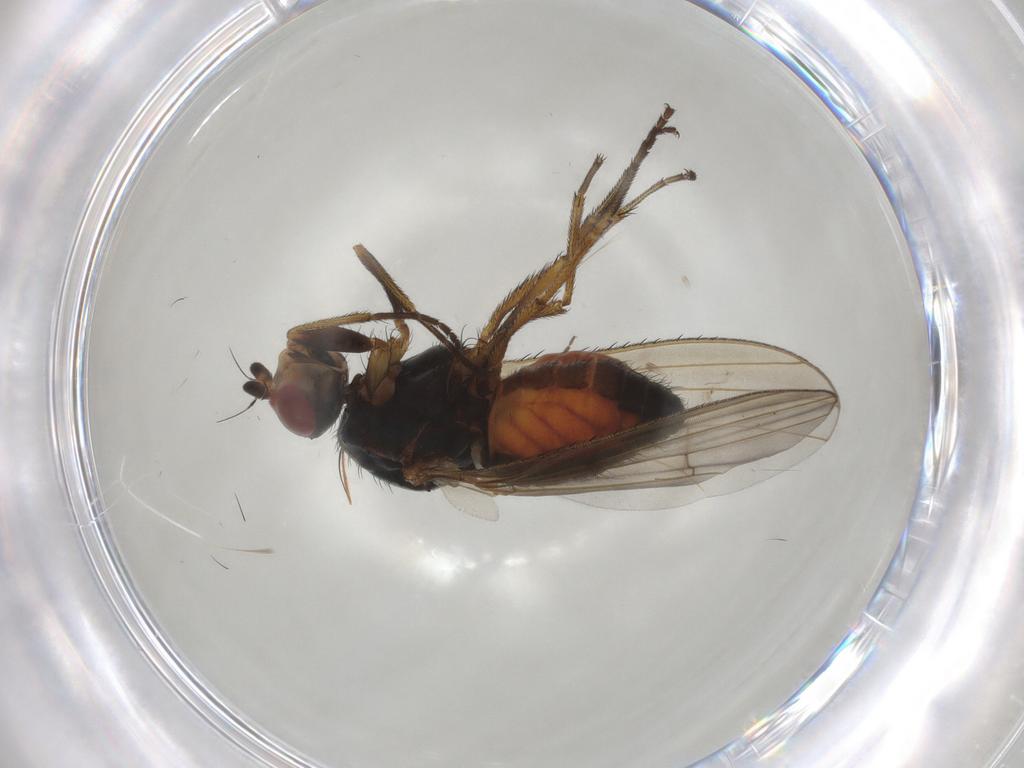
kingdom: Animalia
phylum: Arthropoda
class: Insecta
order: Diptera
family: Heleomyzidae
